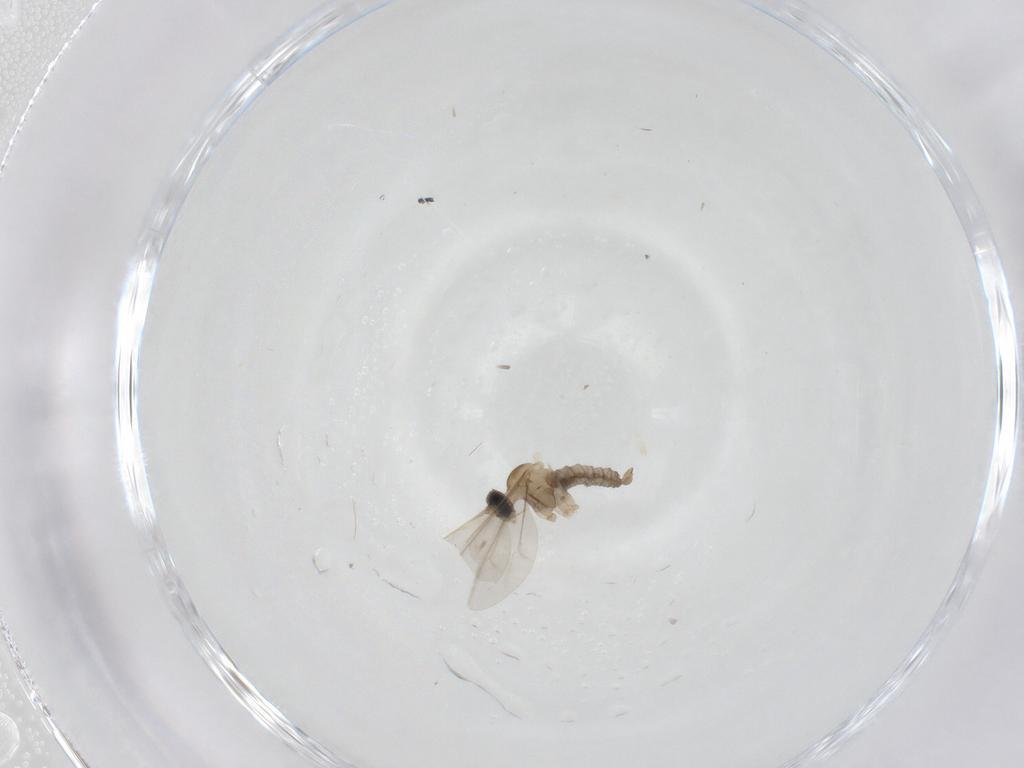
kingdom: Animalia
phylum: Arthropoda
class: Insecta
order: Diptera
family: Cecidomyiidae
